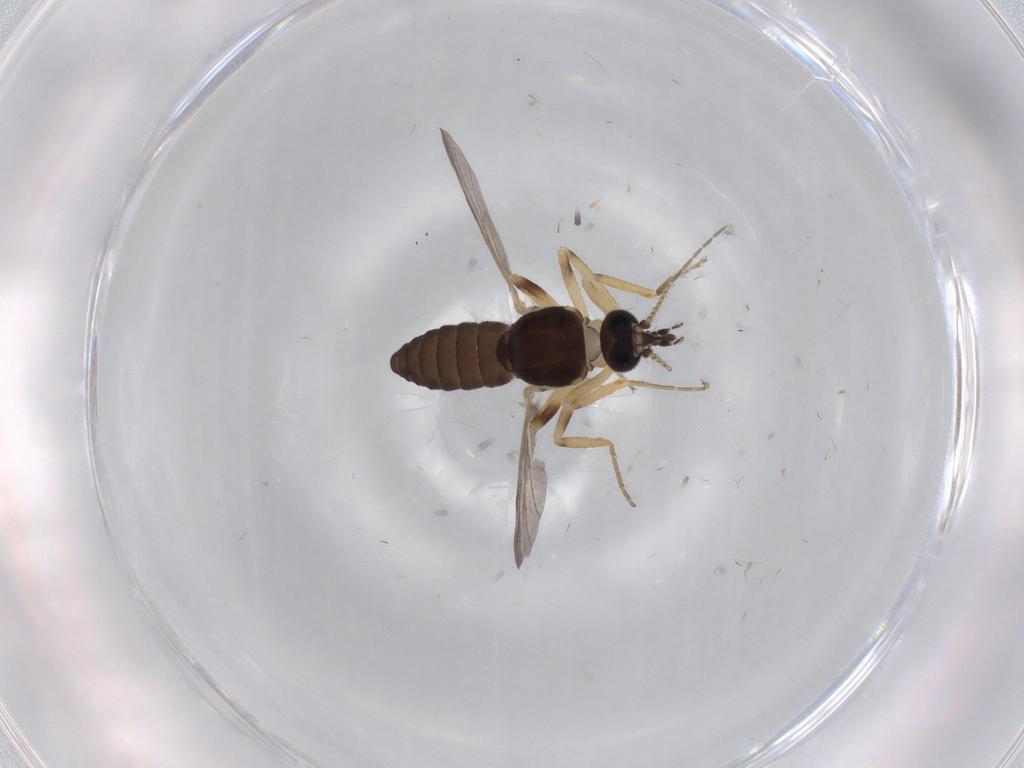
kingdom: Animalia
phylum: Arthropoda
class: Insecta
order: Diptera
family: Ceratopogonidae
